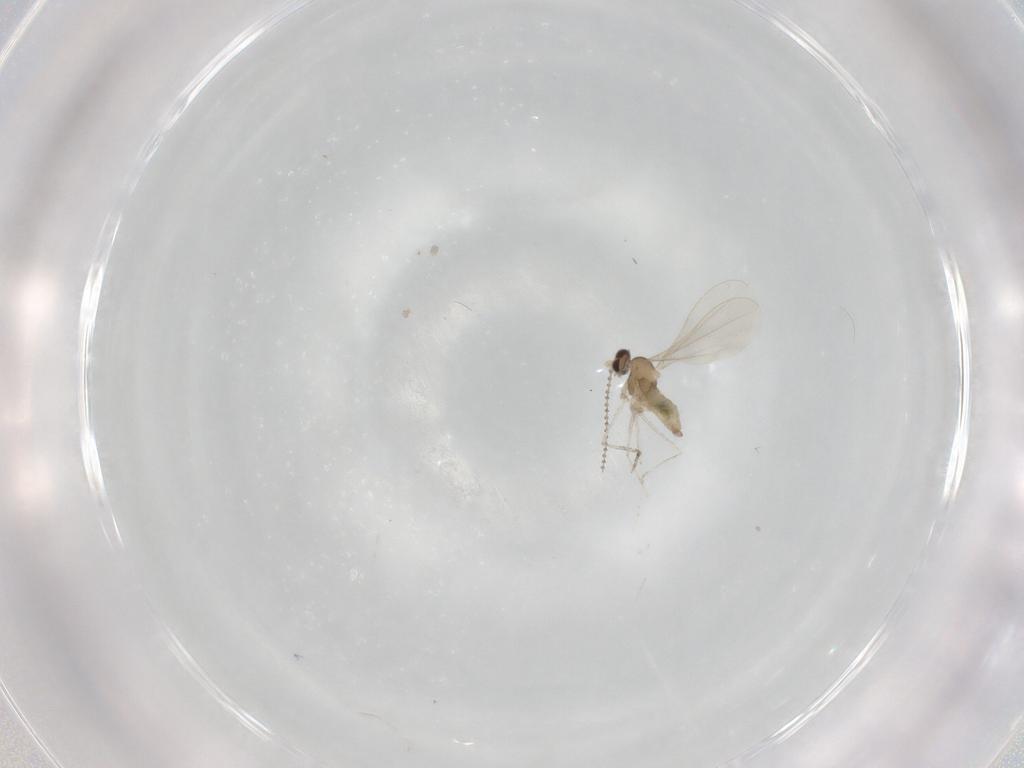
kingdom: Animalia
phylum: Arthropoda
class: Insecta
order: Diptera
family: Cecidomyiidae
